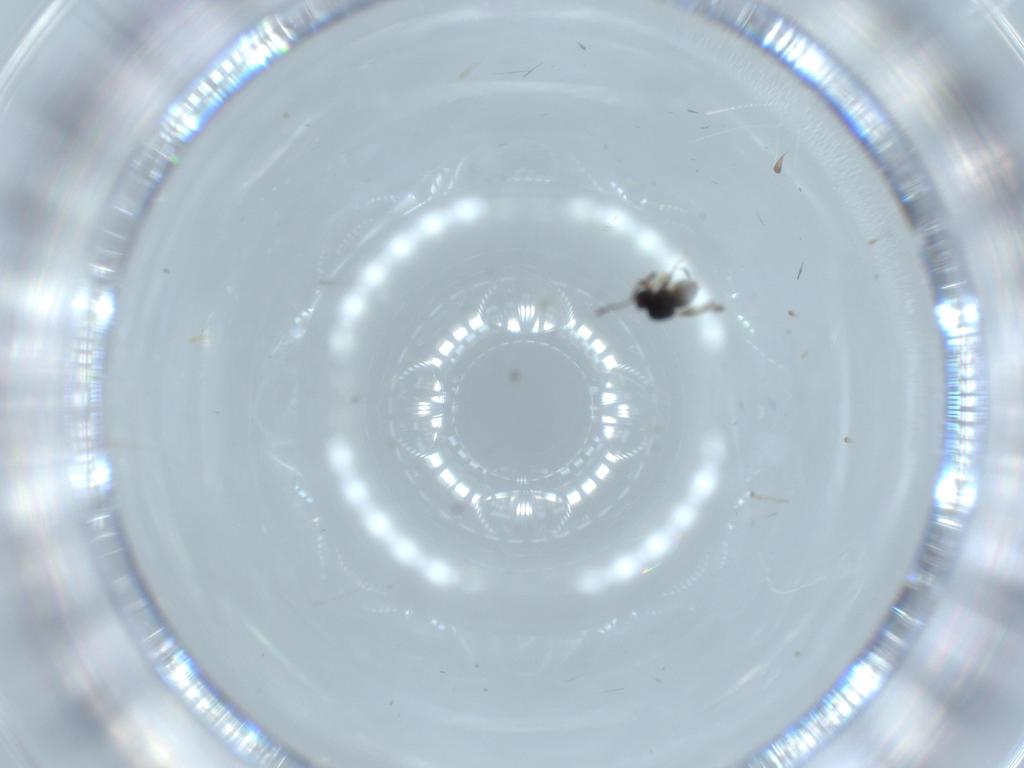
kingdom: Animalia
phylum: Arthropoda
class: Insecta
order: Hymenoptera
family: Ceraphronidae
